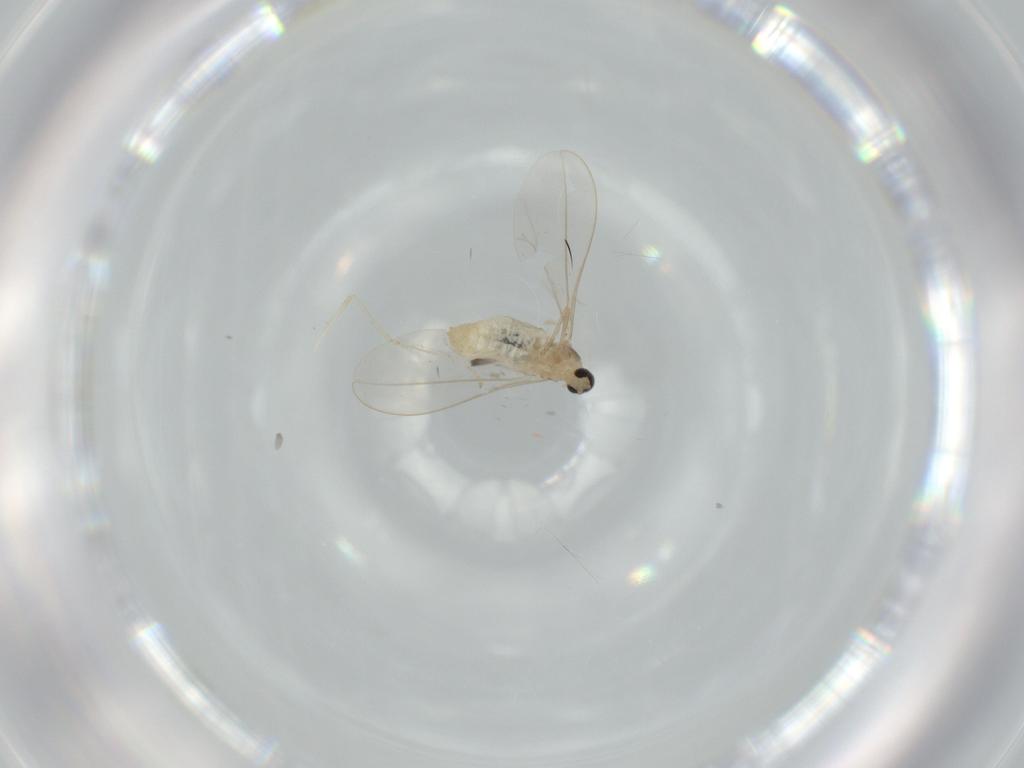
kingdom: Animalia
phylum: Arthropoda
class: Insecta
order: Diptera
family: Cecidomyiidae
